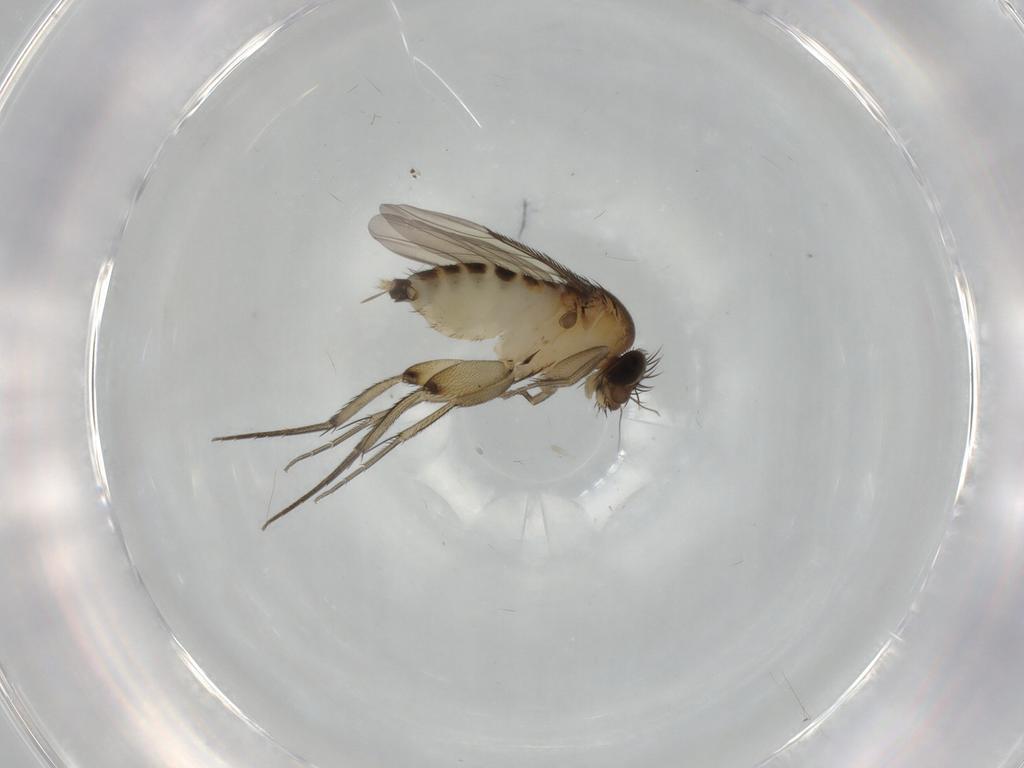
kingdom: Animalia
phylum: Arthropoda
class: Insecta
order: Diptera
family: Phoridae
